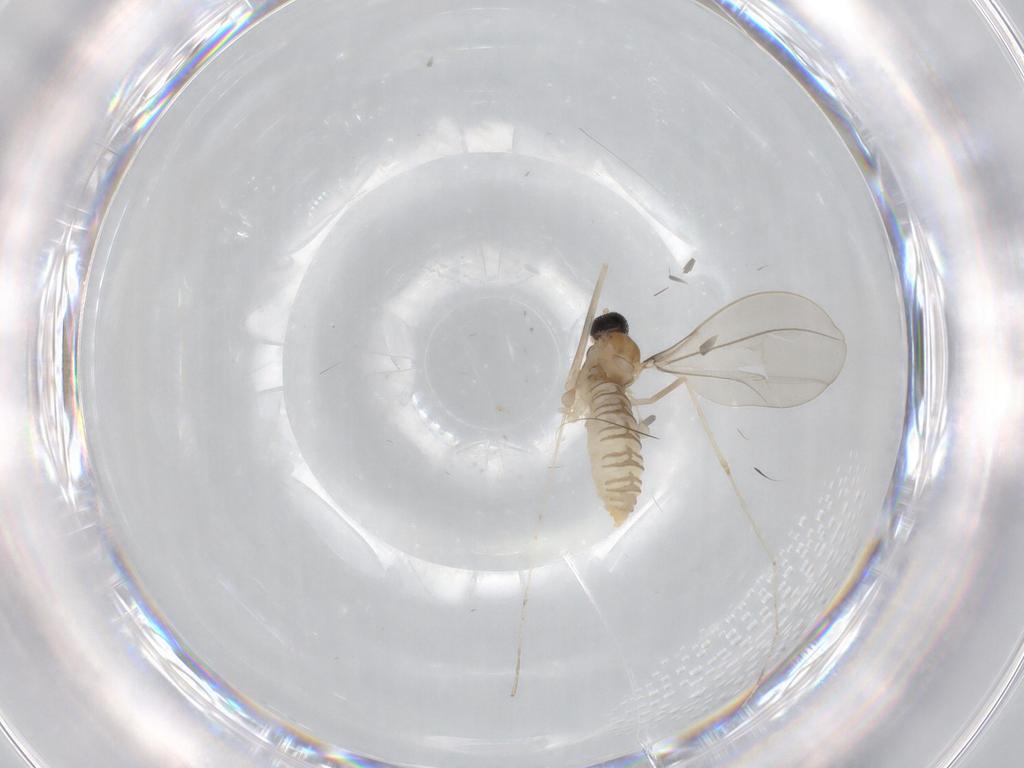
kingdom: Animalia
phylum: Arthropoda
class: Insecta
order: Diptera
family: Cecidomyiidae
